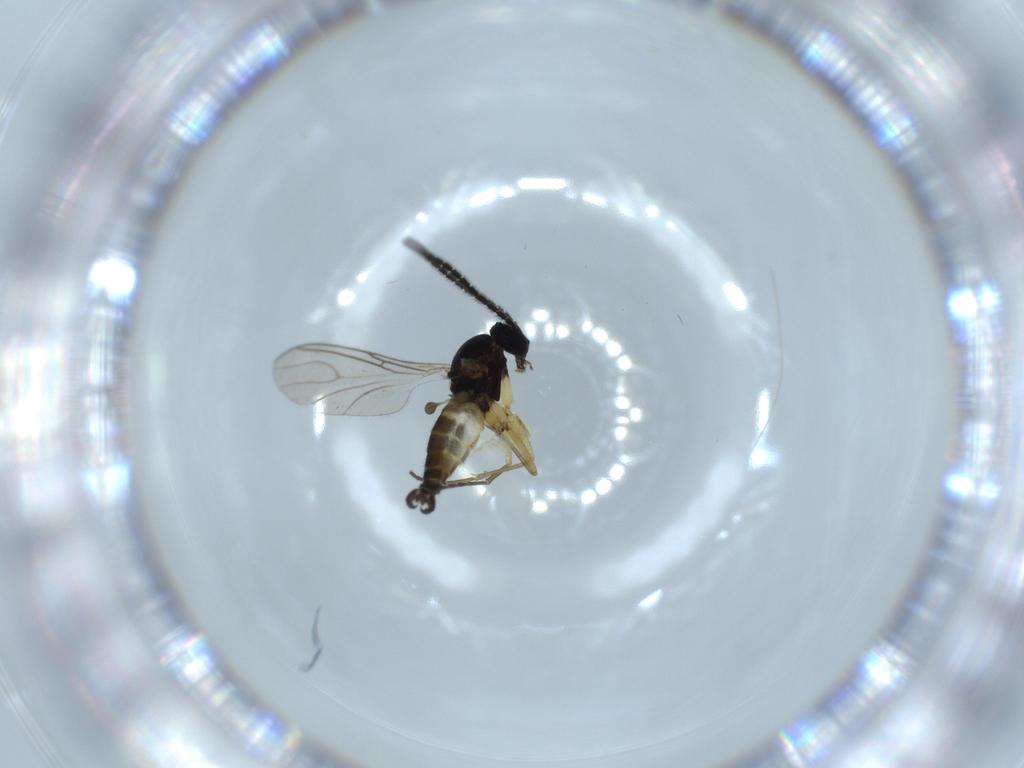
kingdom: Animalia
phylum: Arthropoda
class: Insecta
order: Diptera
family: Sciaridae
